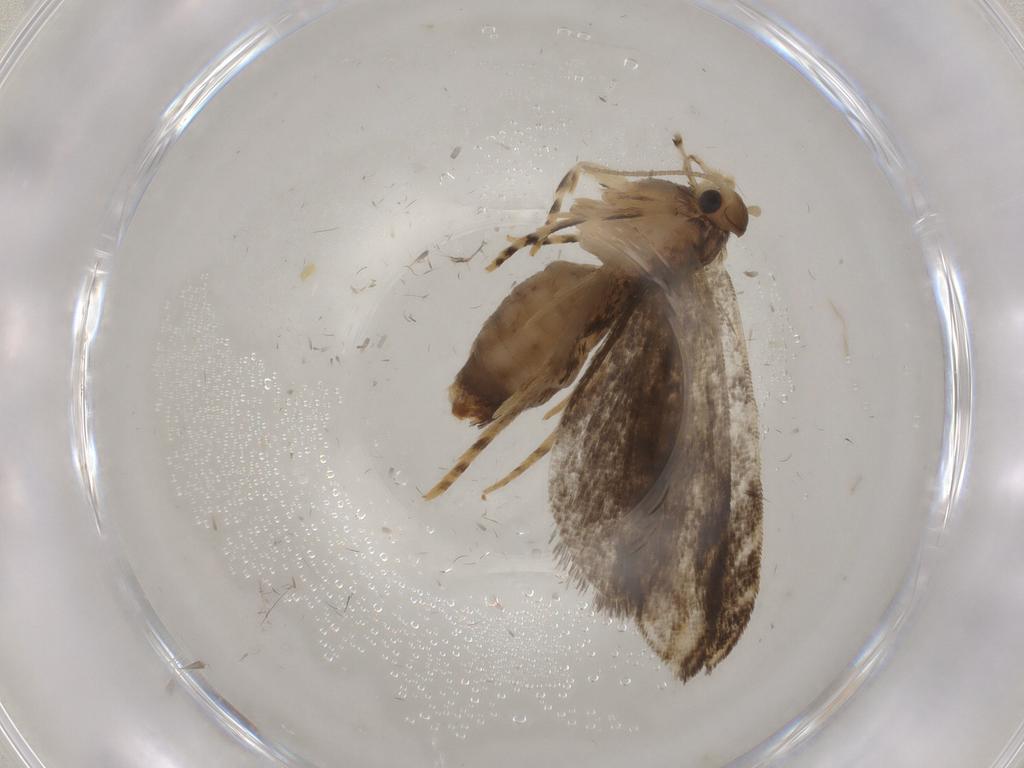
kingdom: Animalia
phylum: Arthropoda
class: Insecta
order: Lepidoptera
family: Tineidae
